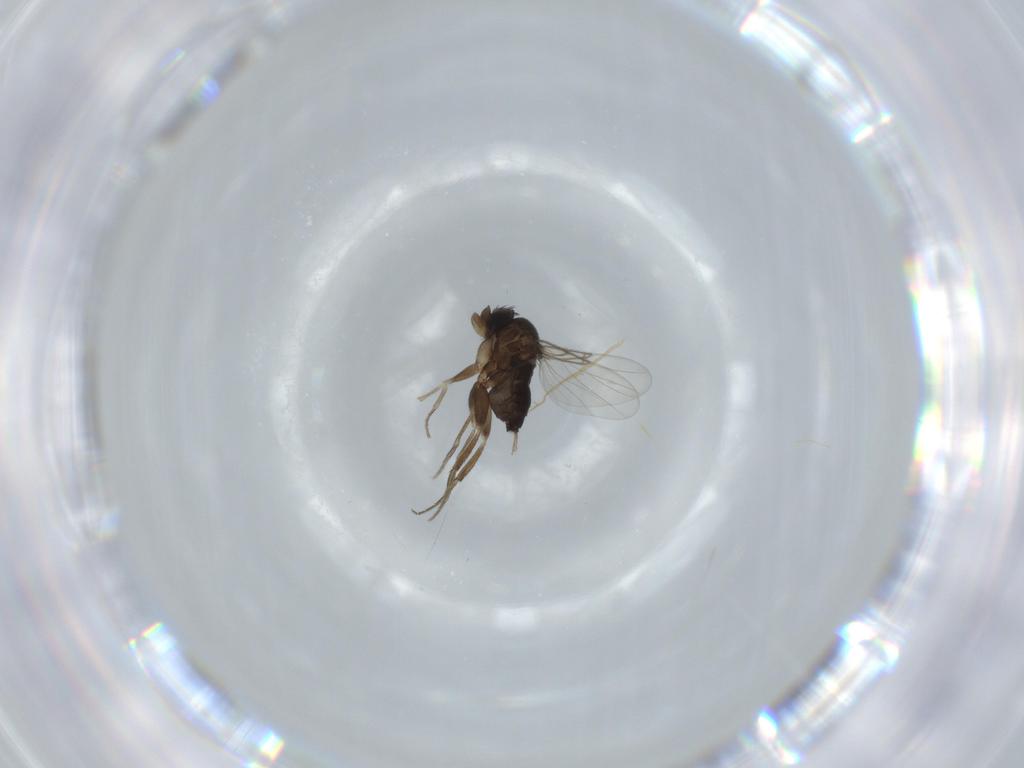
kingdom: Animalia
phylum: Arthropoda
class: Insecta
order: Diptera
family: Phoridae
